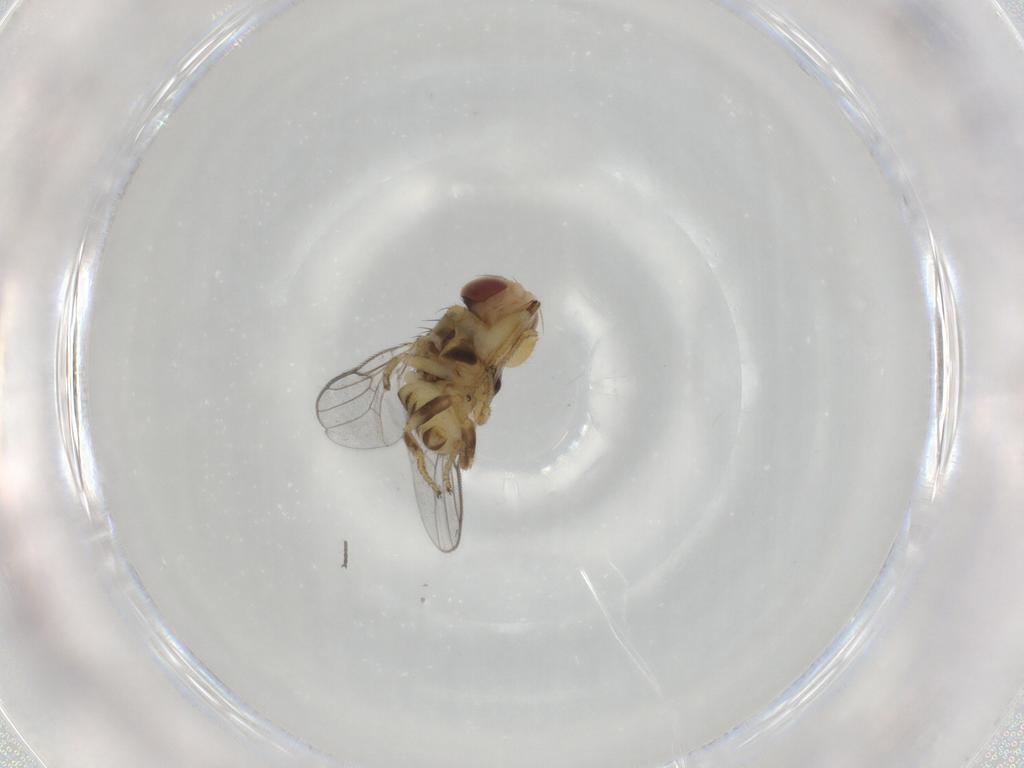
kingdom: Animalia
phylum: Arthropoda
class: Insecta
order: Diptera
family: Chloropidae
